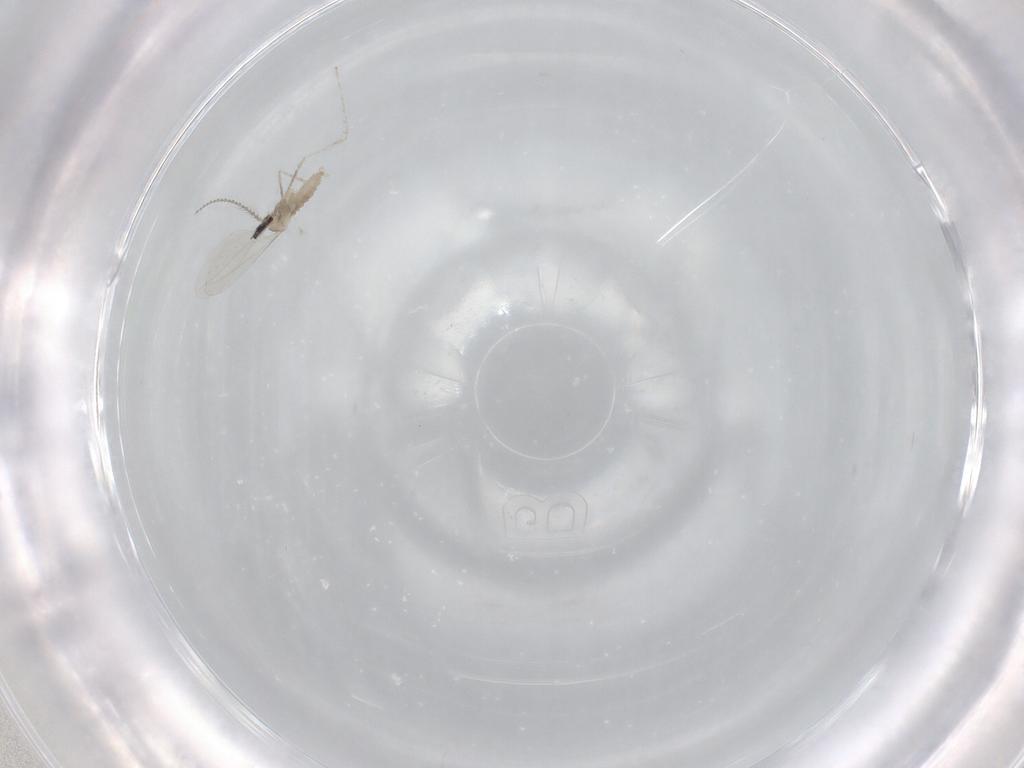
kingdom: Animalia
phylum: Arthropoda
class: Insecta
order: Diptera
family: Cecidomyiidae
